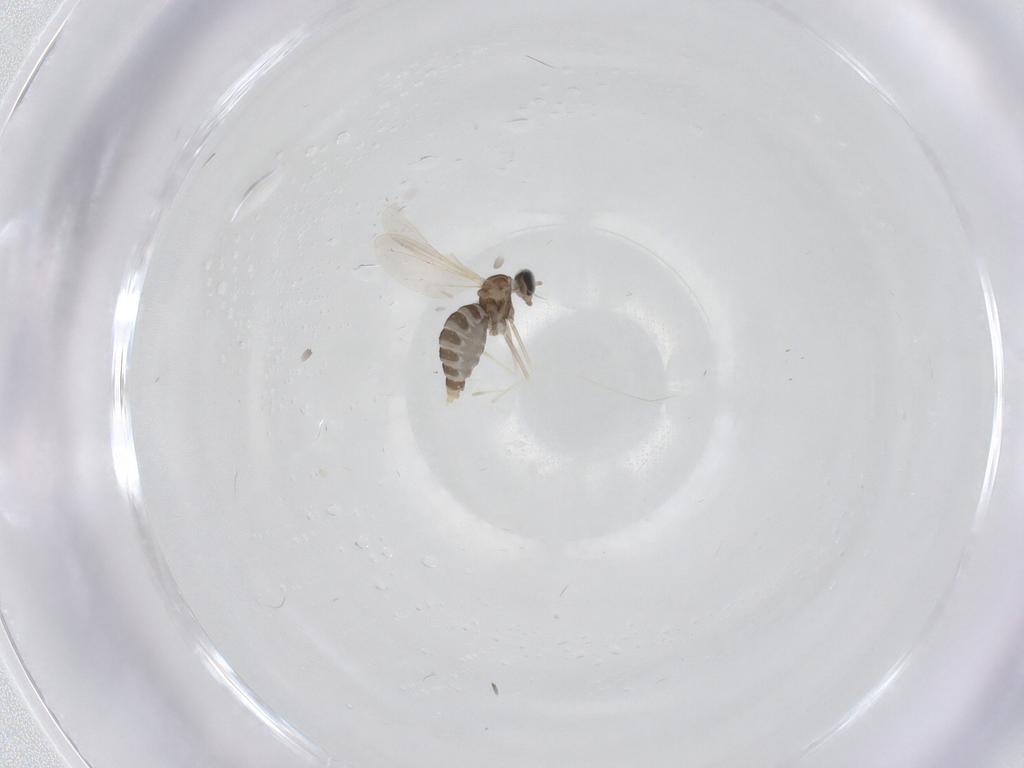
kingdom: Animalia
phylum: Arthropoda
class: Insecta
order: Diptera
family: Cecidomyiidae
